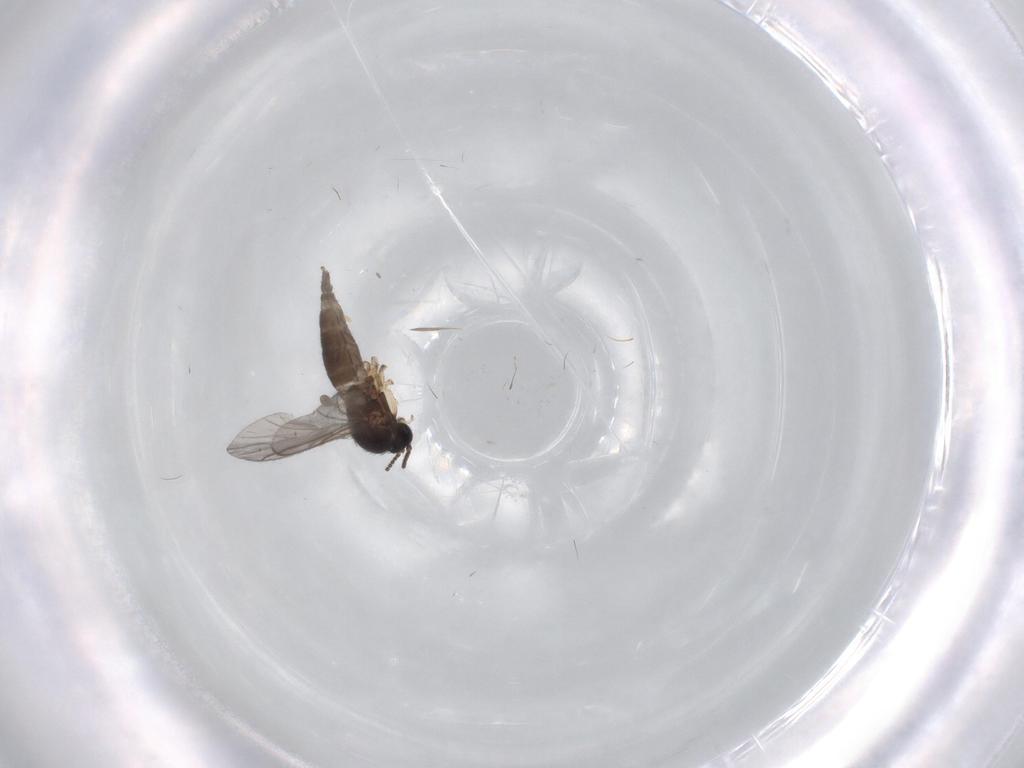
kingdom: Animalia
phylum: Arthropoda
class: Insecta
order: Diptera
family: Sciaridae
